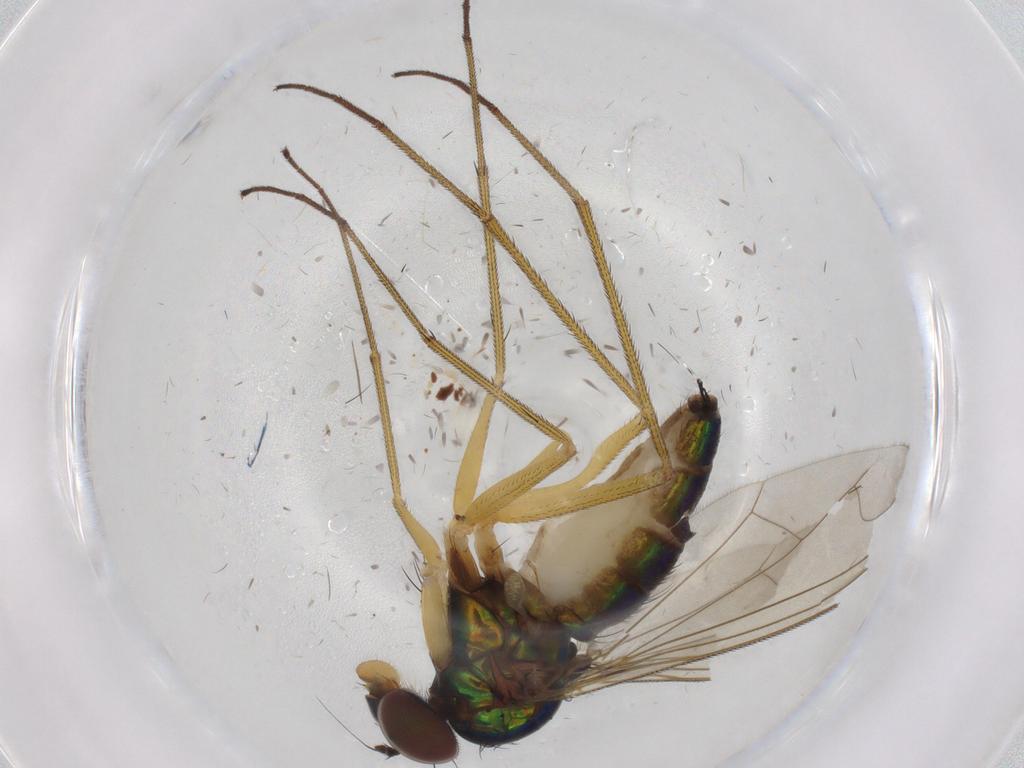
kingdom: Animalia
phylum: Arthropoda
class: Insecta
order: Diptera
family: Dolichopodidae
